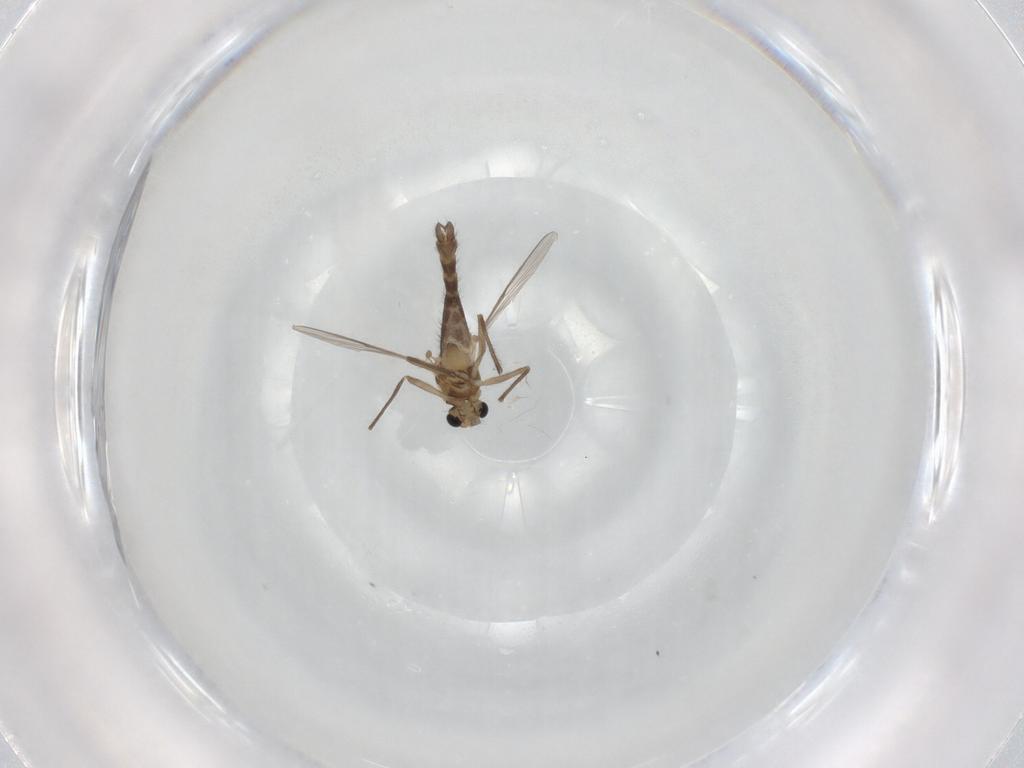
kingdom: Animalia
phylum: Arthropoda
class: Insecta
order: Diptera
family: Chironomidae
